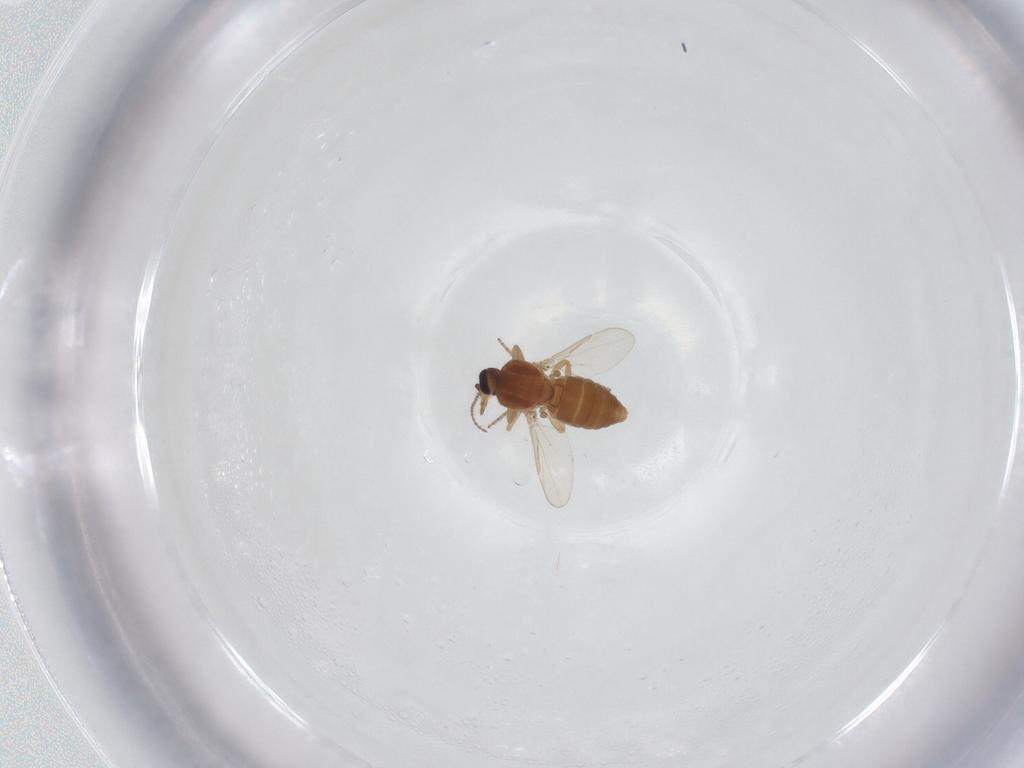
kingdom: Animalia
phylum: Arthropoda
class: Insecta
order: Diptera
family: Ceratopogonidae
